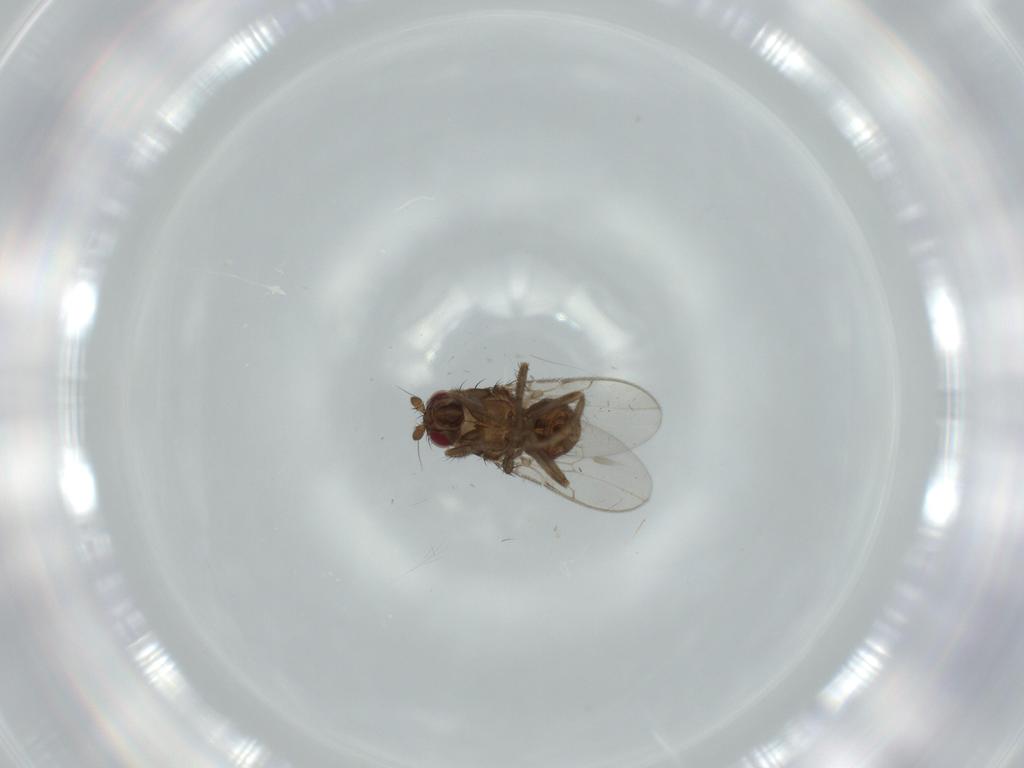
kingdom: Animalia
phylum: Arthropoda
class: Insecta
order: Diptera
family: Sphaeroceridae
